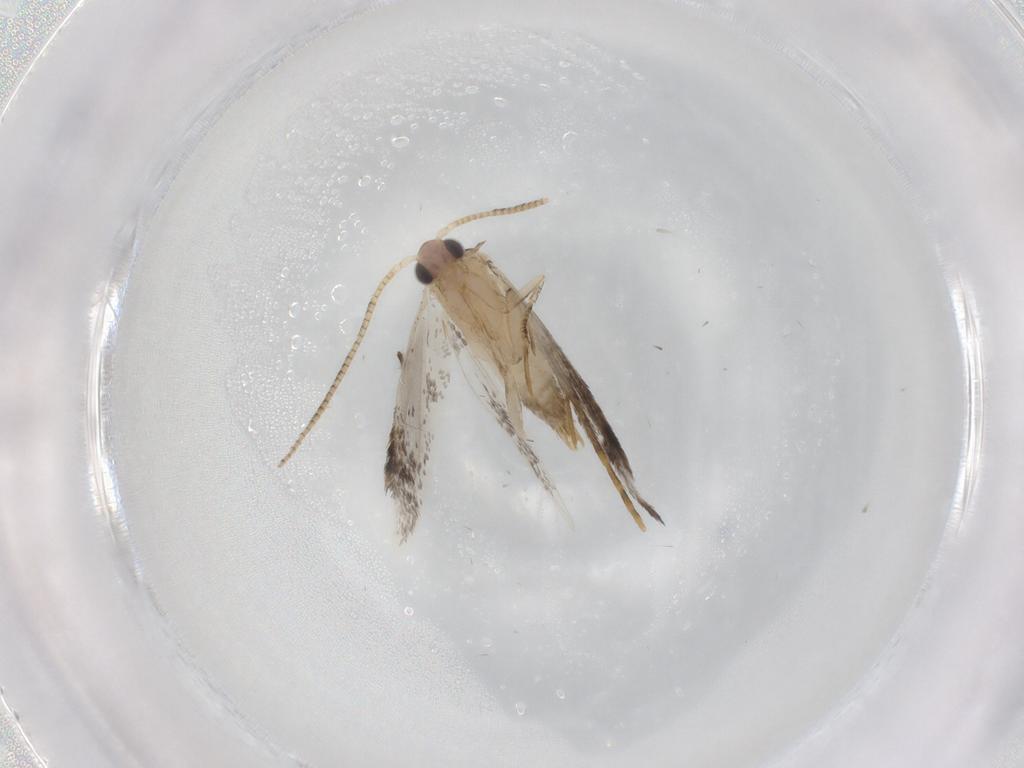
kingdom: Animalia
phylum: Arthropoda
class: Insecta
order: Lepidoptera
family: Tineidae
